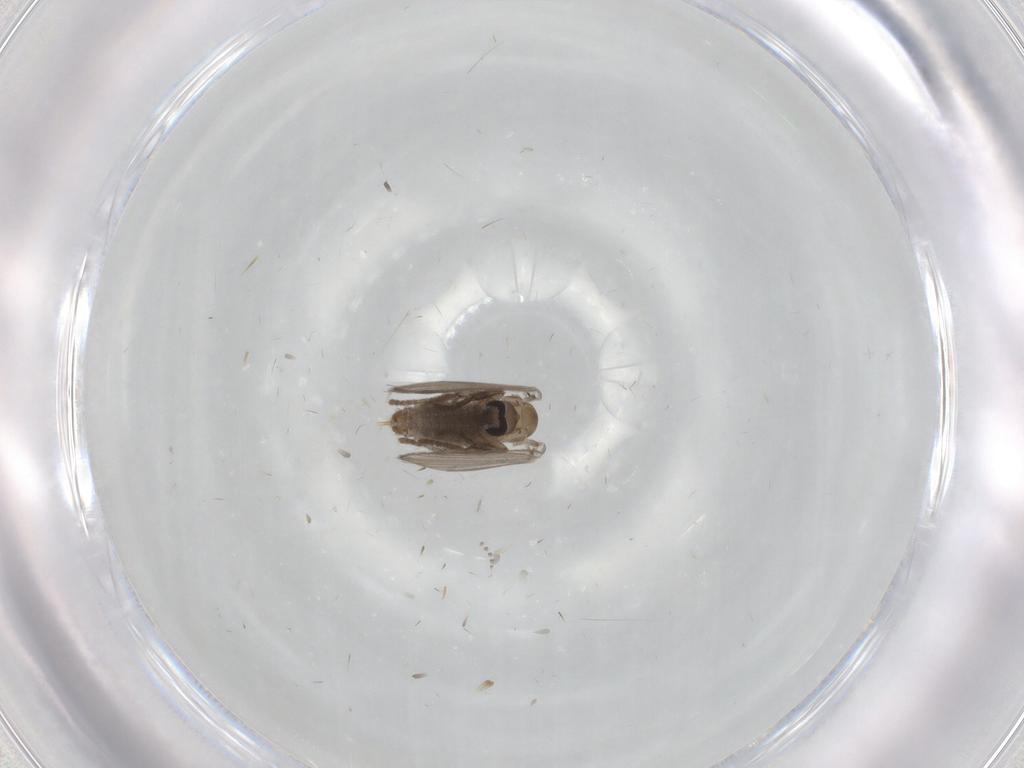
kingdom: Animalia
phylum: Arthropoda
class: Insecta
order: Diptera
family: Psychodidae
